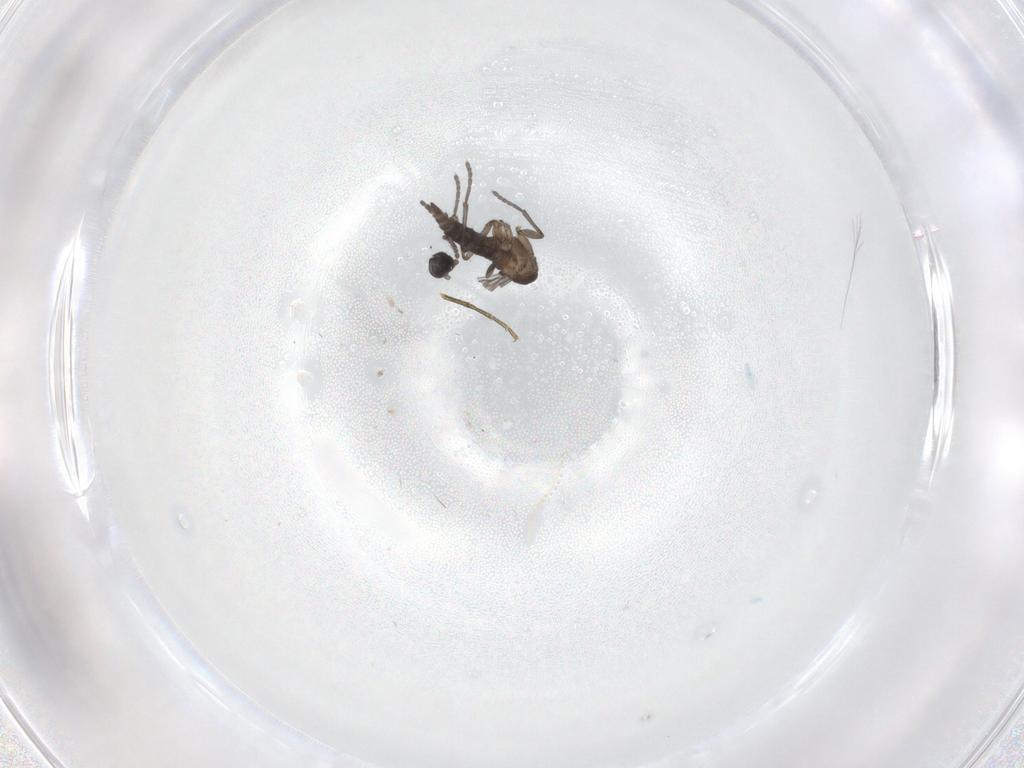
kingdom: Animalia
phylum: Arthropoda
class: Insecta
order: Diptera
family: Sciaridae
